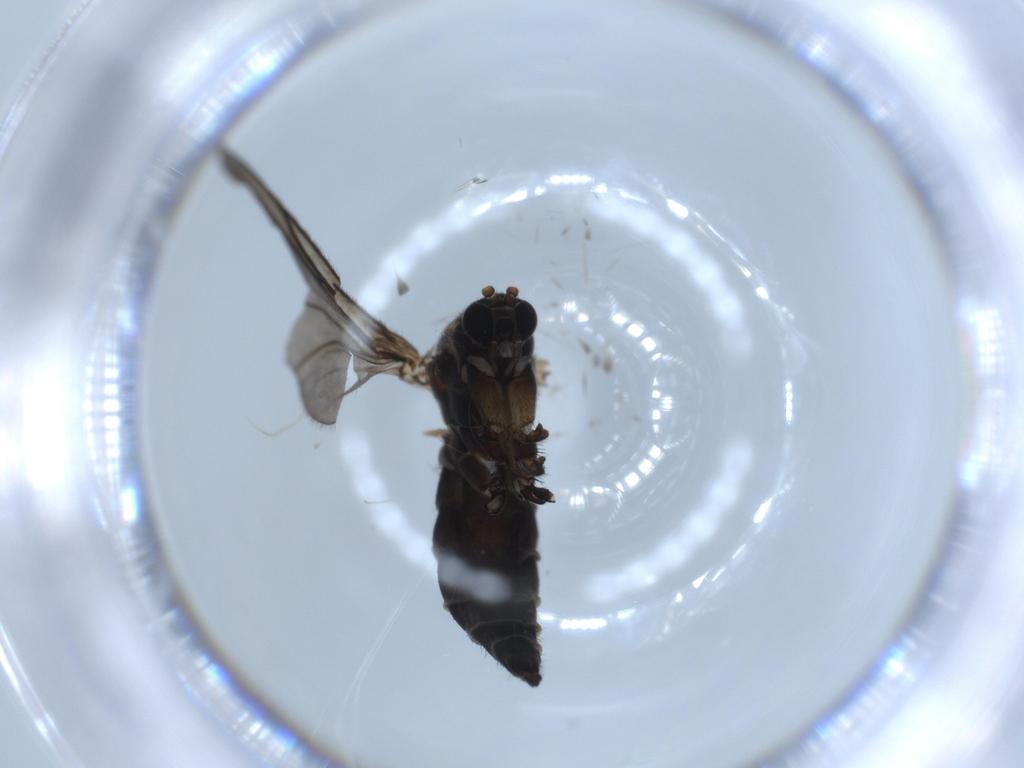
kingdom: Animalia
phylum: Arthropoda
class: Insecta
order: Diptera
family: Sciaridae
